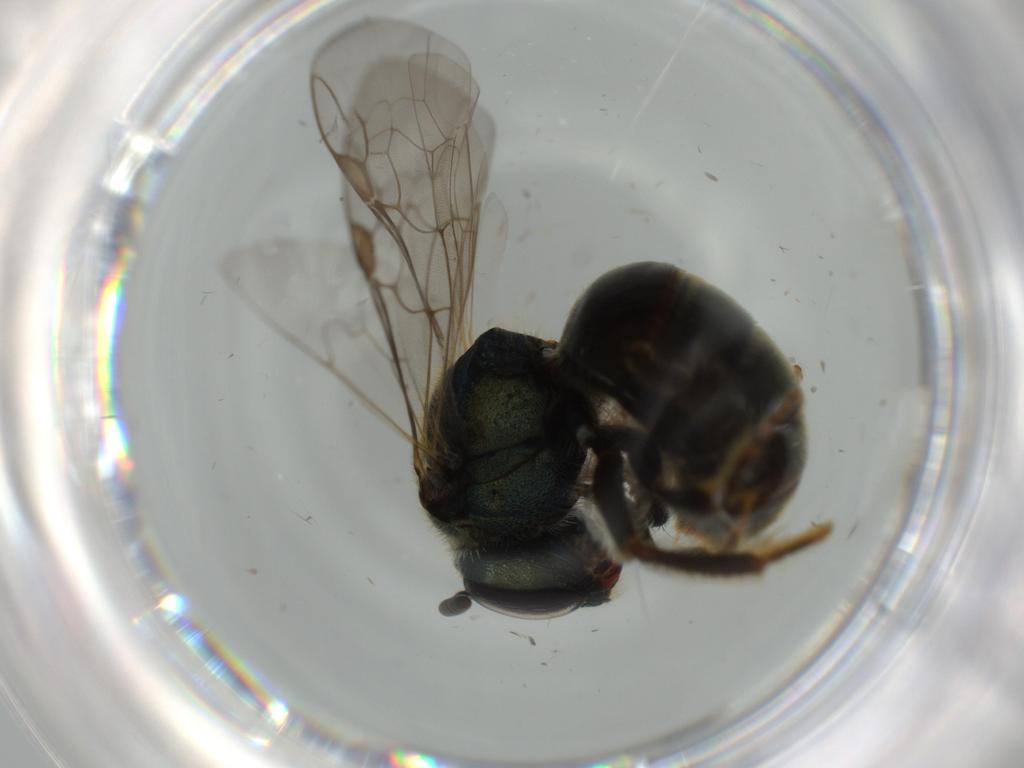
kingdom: Animalia
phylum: Arthropoda
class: Insecta
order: Hymenoptera
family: Halictidae
